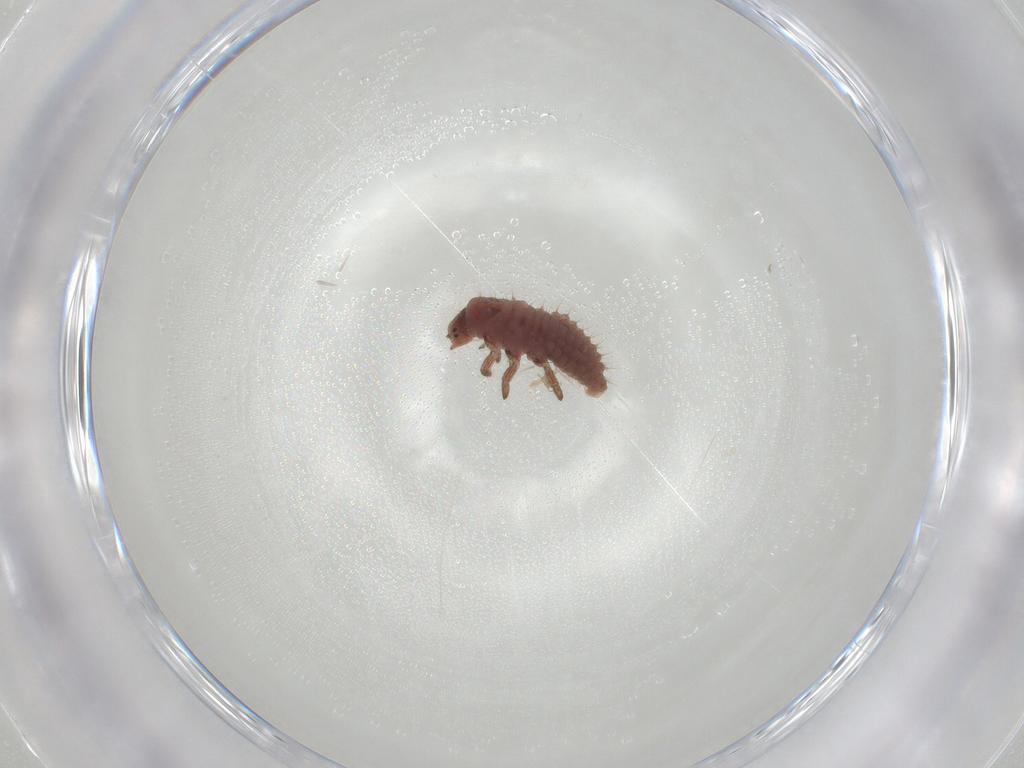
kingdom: Animalia
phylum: Arthropoda
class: Insecta
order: Coleoptera
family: Coccinellidae
